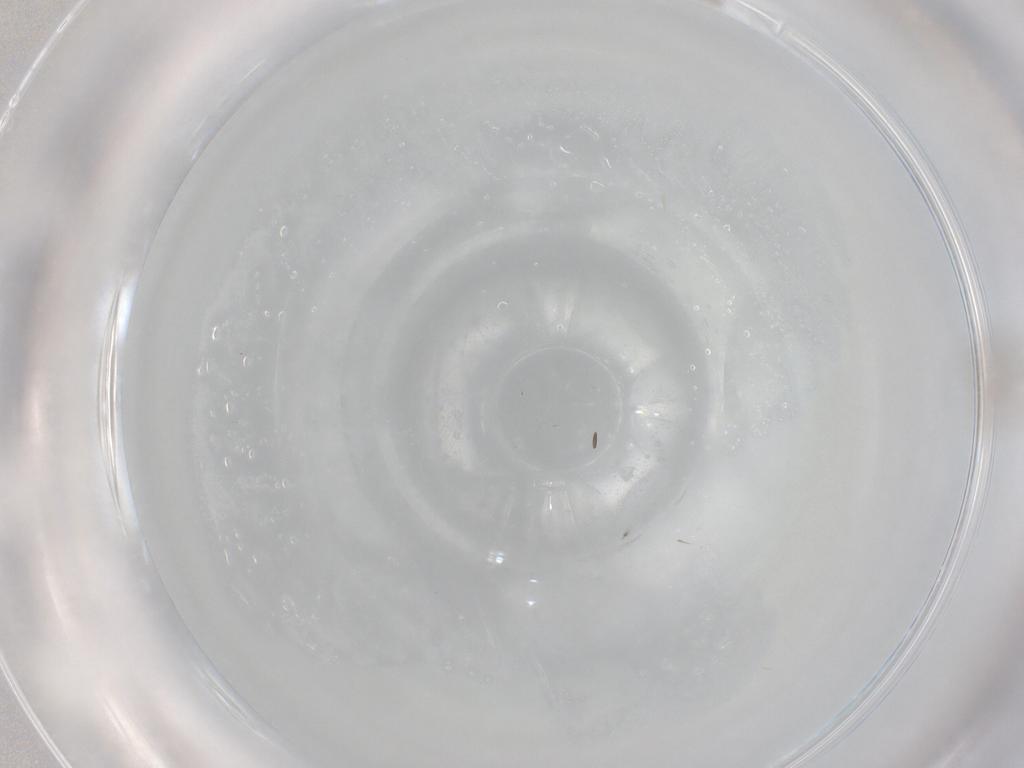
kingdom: Animalia
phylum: Arthropoda
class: Insecta
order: Hymenoptera
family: Mymaridae
